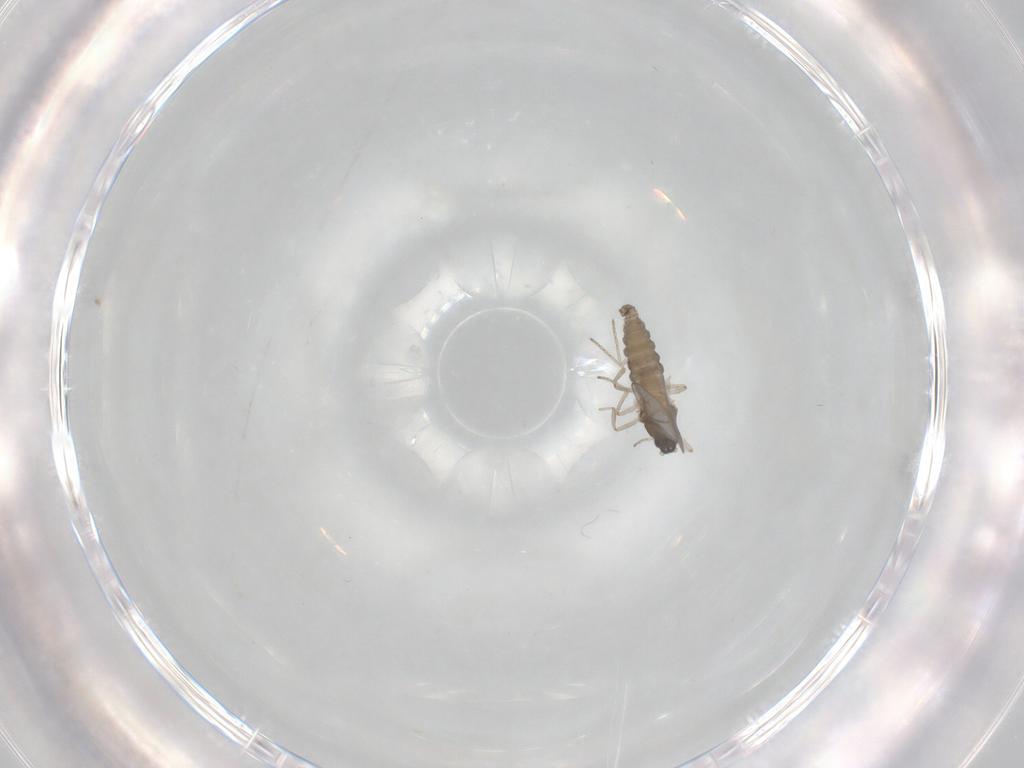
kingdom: Animalia
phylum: Arthropoda
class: Insecta
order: Diptera
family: Cecidomyiidae
